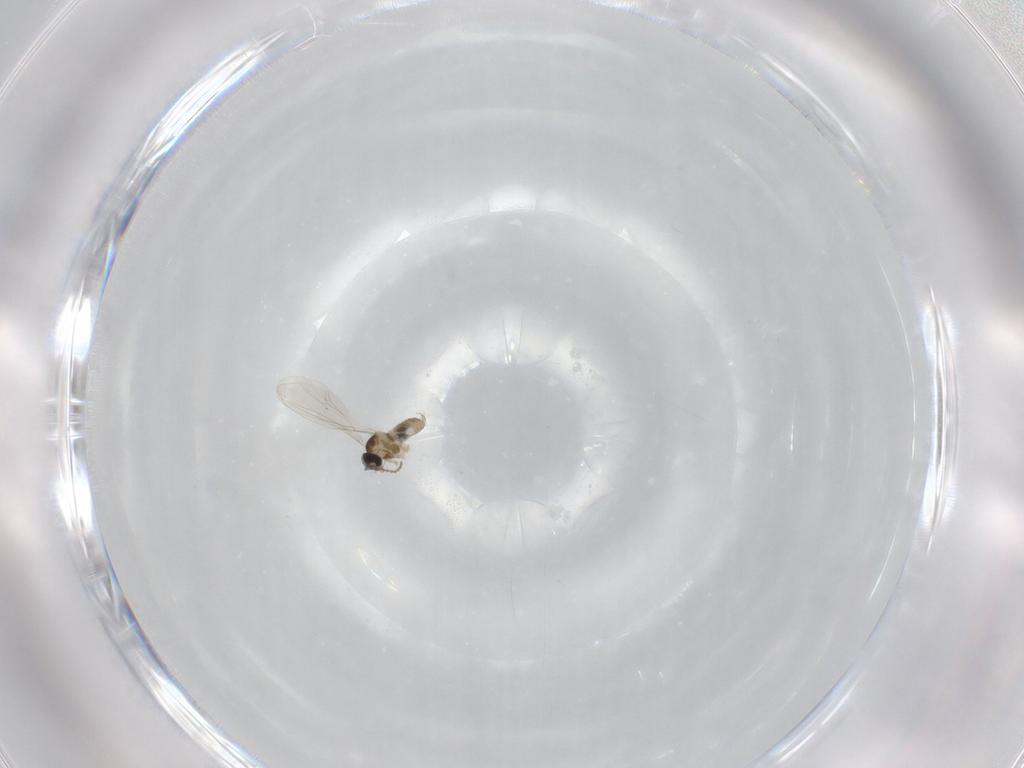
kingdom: Animalia
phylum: Arthropoda
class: Insecta
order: Diptera
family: Cecidomyiidae
